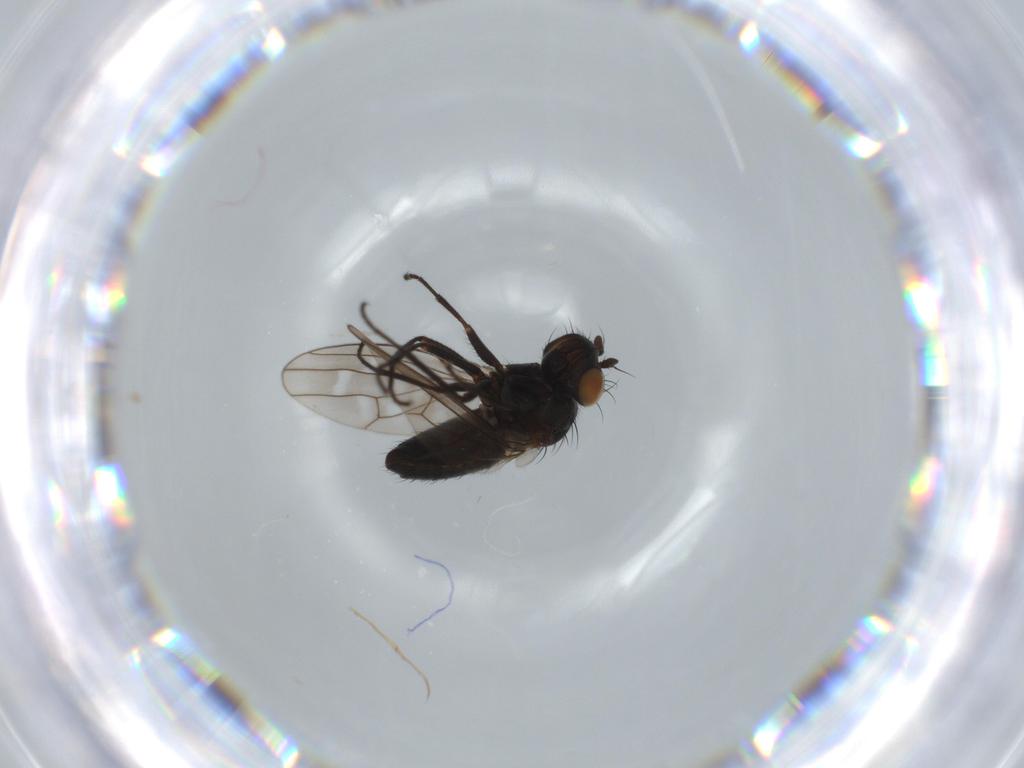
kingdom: Animalia
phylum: Arthropoda
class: Insecta
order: Diptera
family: Ephydridae
